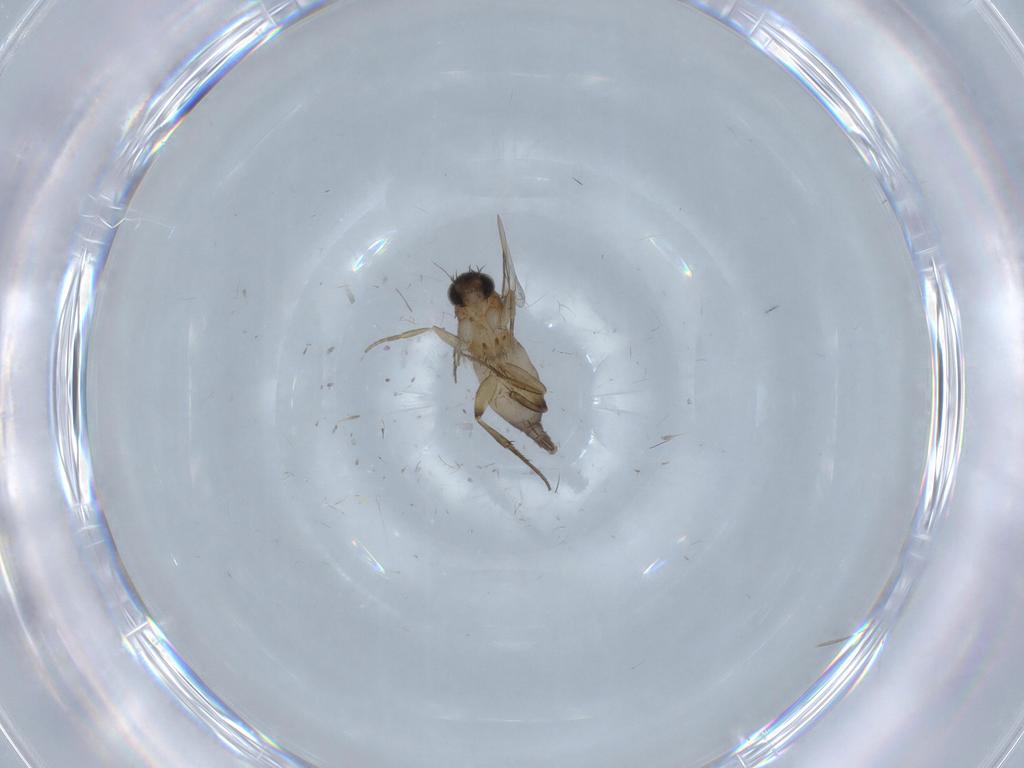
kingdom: Animalia
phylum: Arthropoda
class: Insecta
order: Diptera
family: Phoridae
